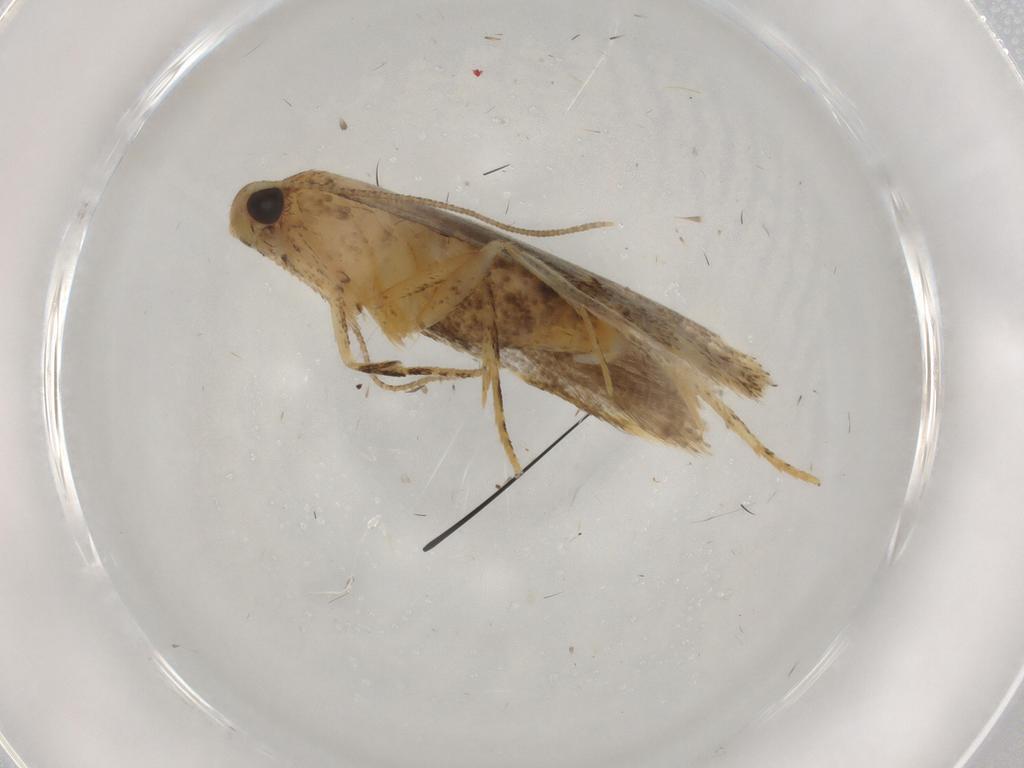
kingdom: Animalia
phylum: Arthropoda
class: Insecta
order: Lepidoptera
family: Gelechiidae
